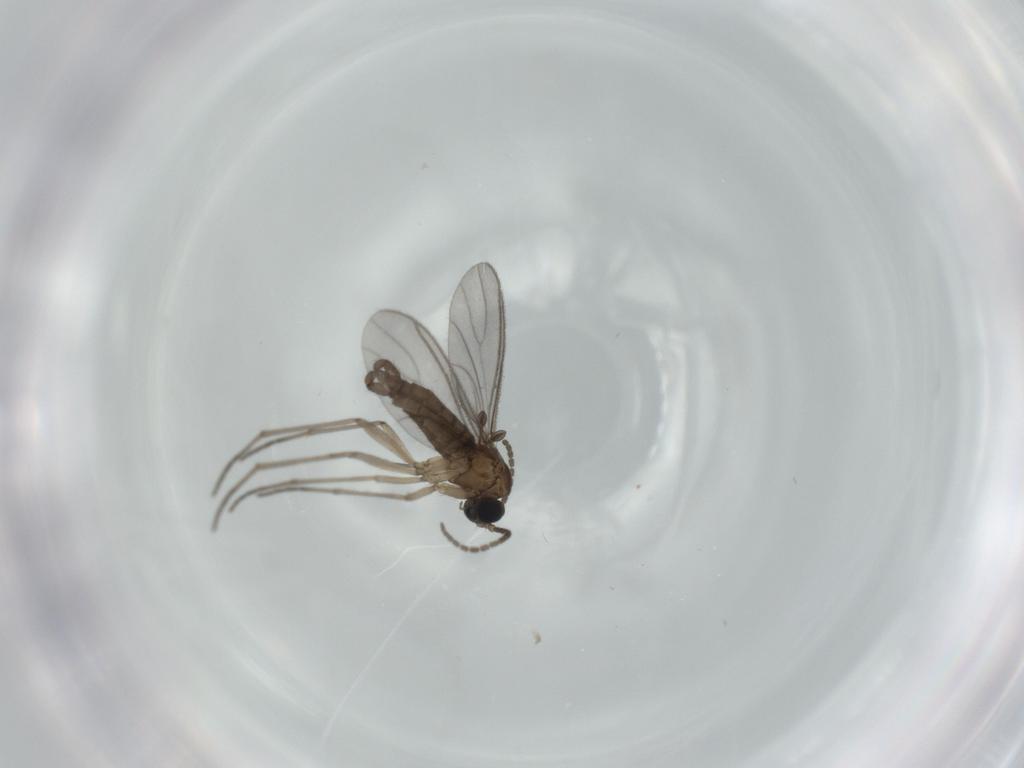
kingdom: Animalia
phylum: Arthropoda
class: Insecta
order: Diptera
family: Sciaridae
